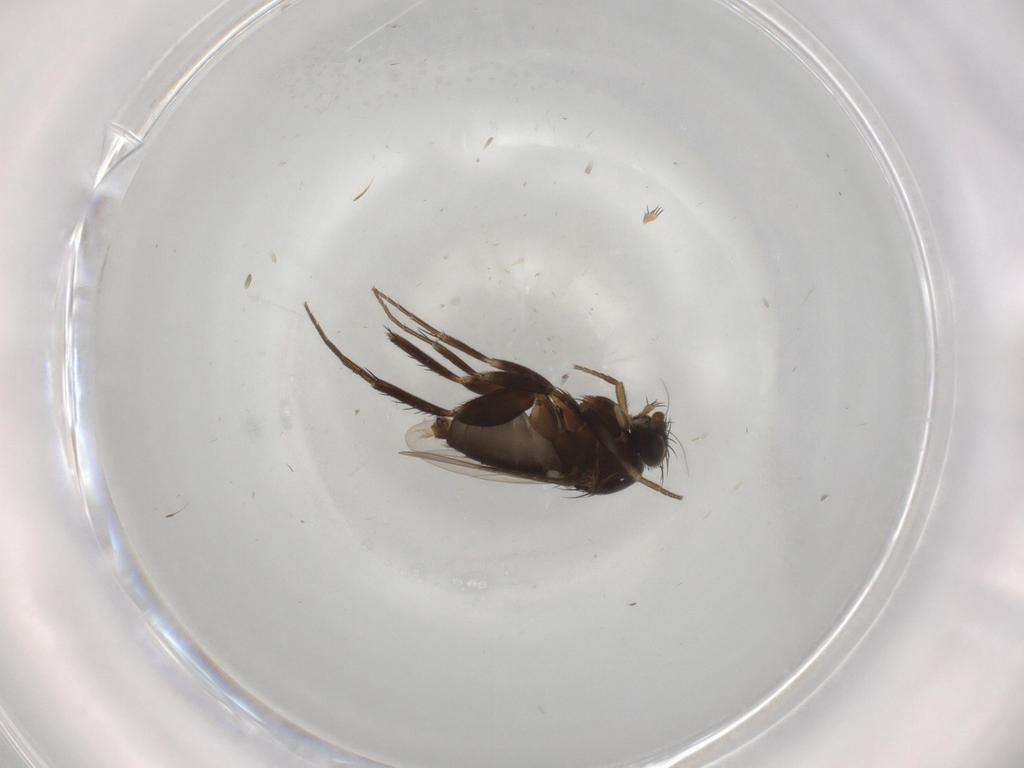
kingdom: Animalia
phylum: Arthropoda
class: Insecta
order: Diptera
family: Phoridae
